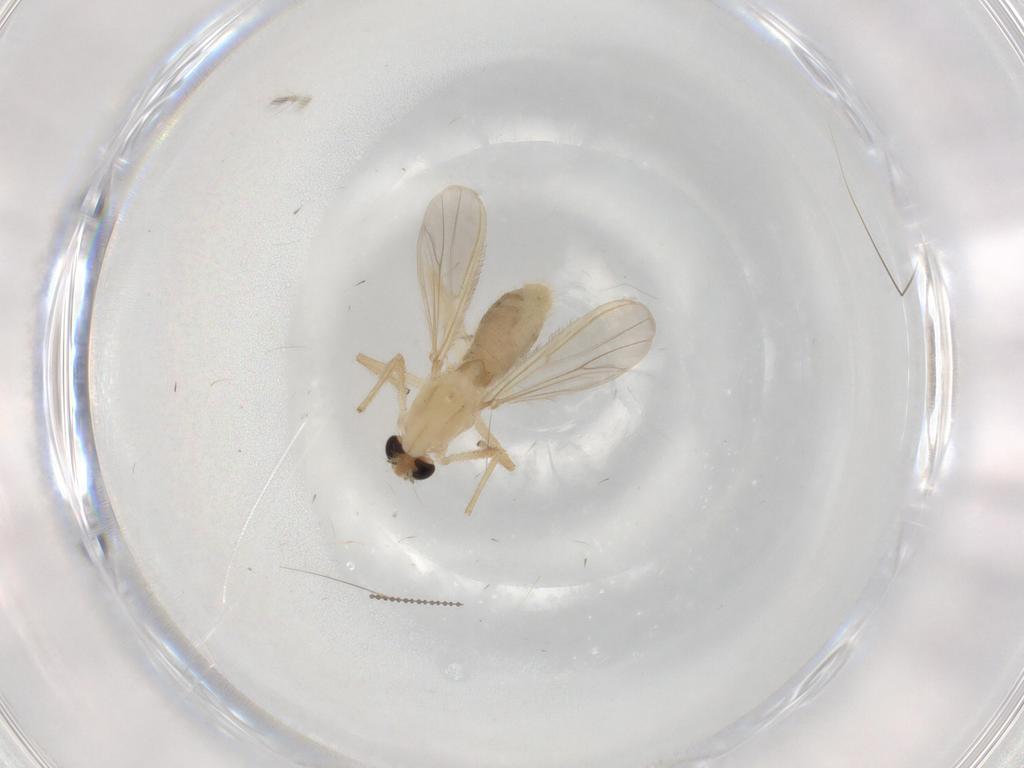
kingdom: Animalia
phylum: Arthropoda
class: Insecta
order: Diptera
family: Chironomidae
